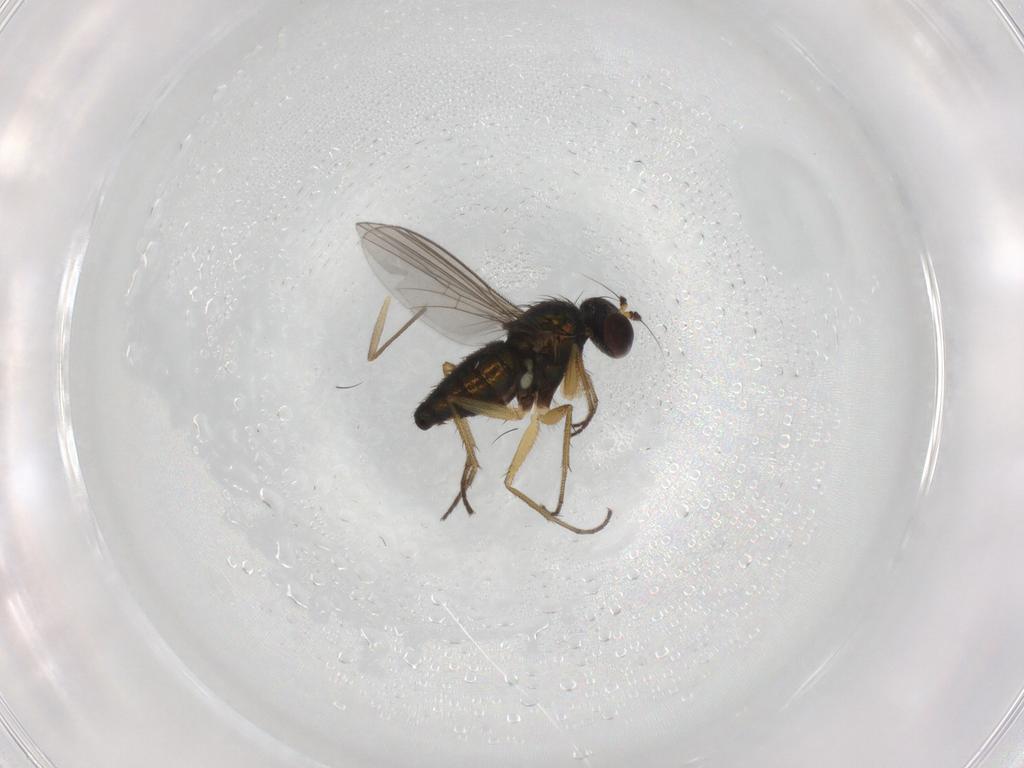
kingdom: Animalia
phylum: Arthropoda
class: Insecta
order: Diptera
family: Chironomidae
